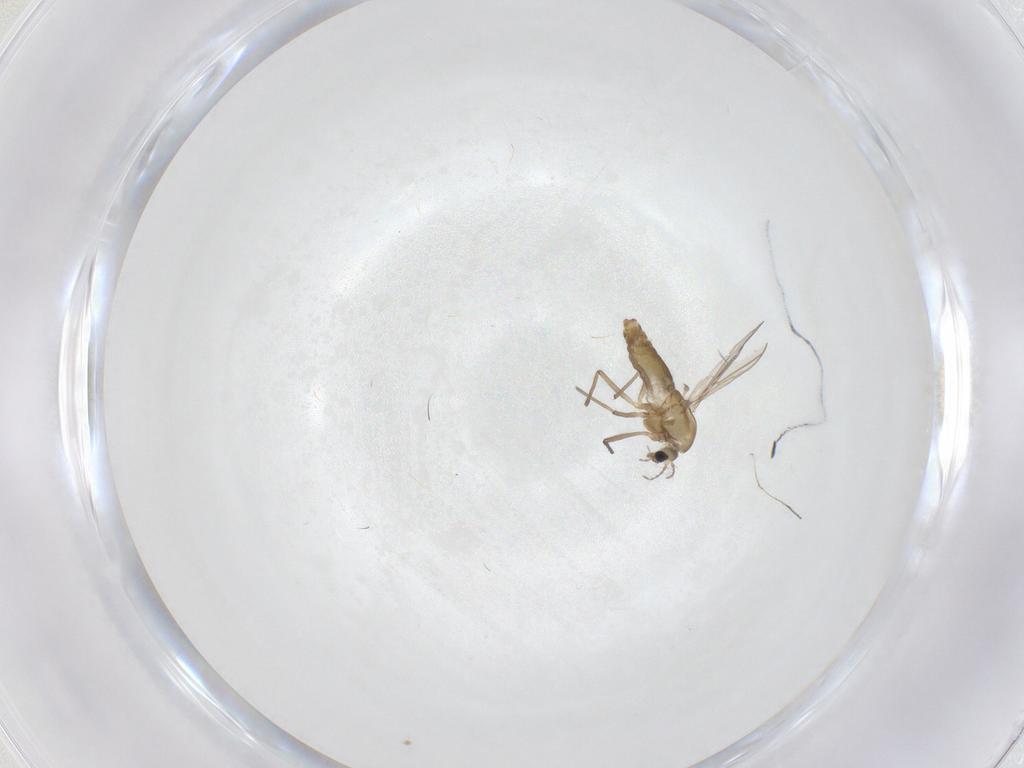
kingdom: Animalia
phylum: Arthropoda
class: Insecta
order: Diptera
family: Chironomidae
